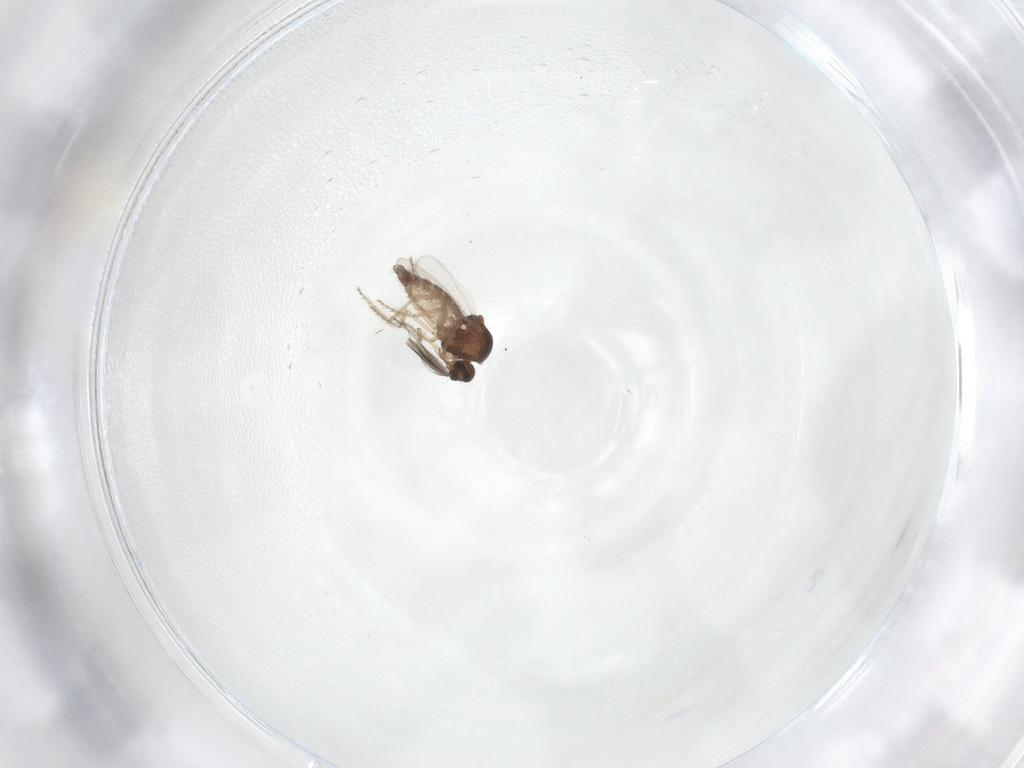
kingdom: Animalia
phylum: Arthropoda
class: Insecta
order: Diptera
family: Ceratopogonidae
